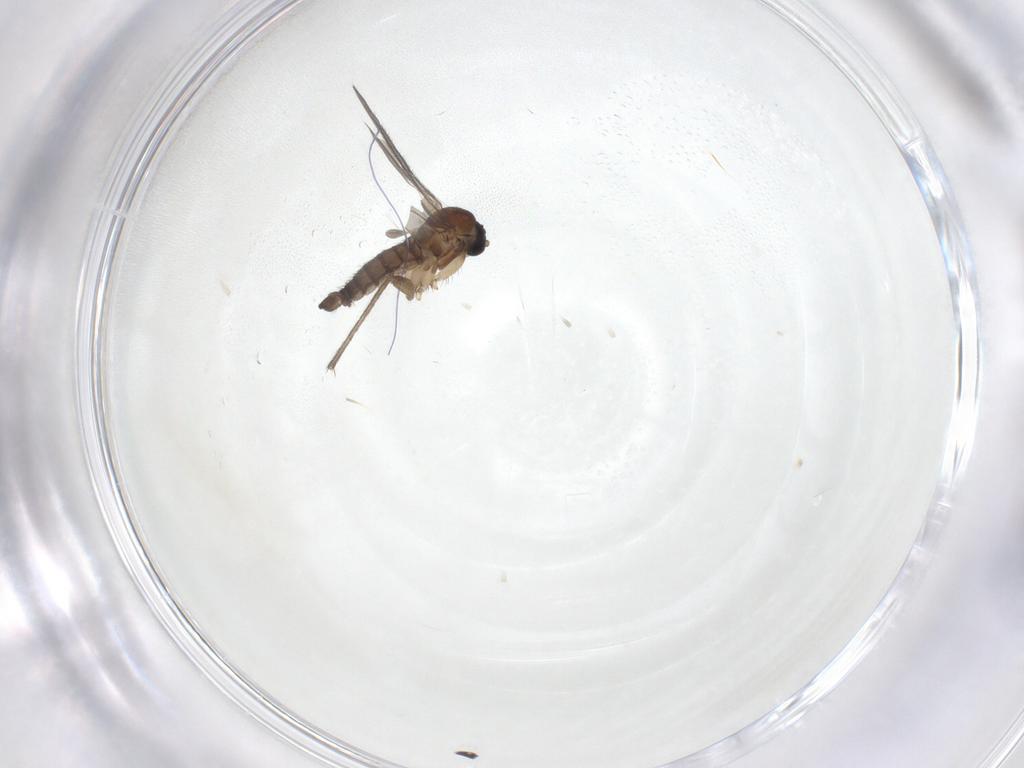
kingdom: Animalia
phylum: Arthropoda
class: Insecta
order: Diptera
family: Sciaridae
